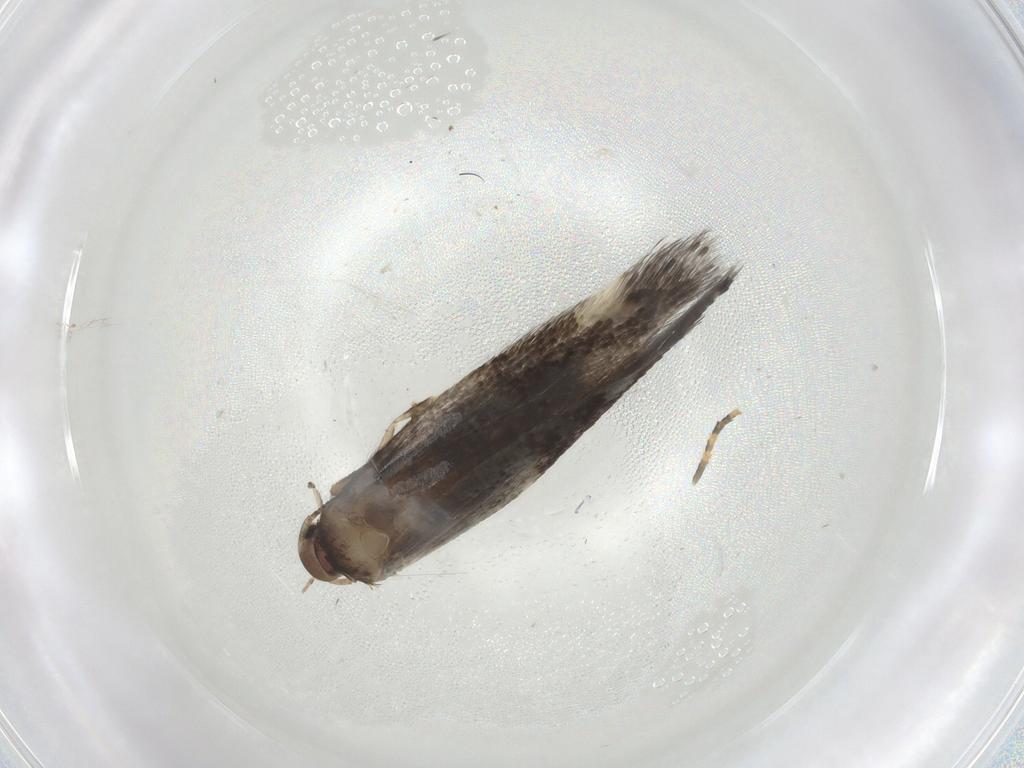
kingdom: Animalia
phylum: Arthropoda
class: Insecta
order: Lepidoptera
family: Elachistidae
